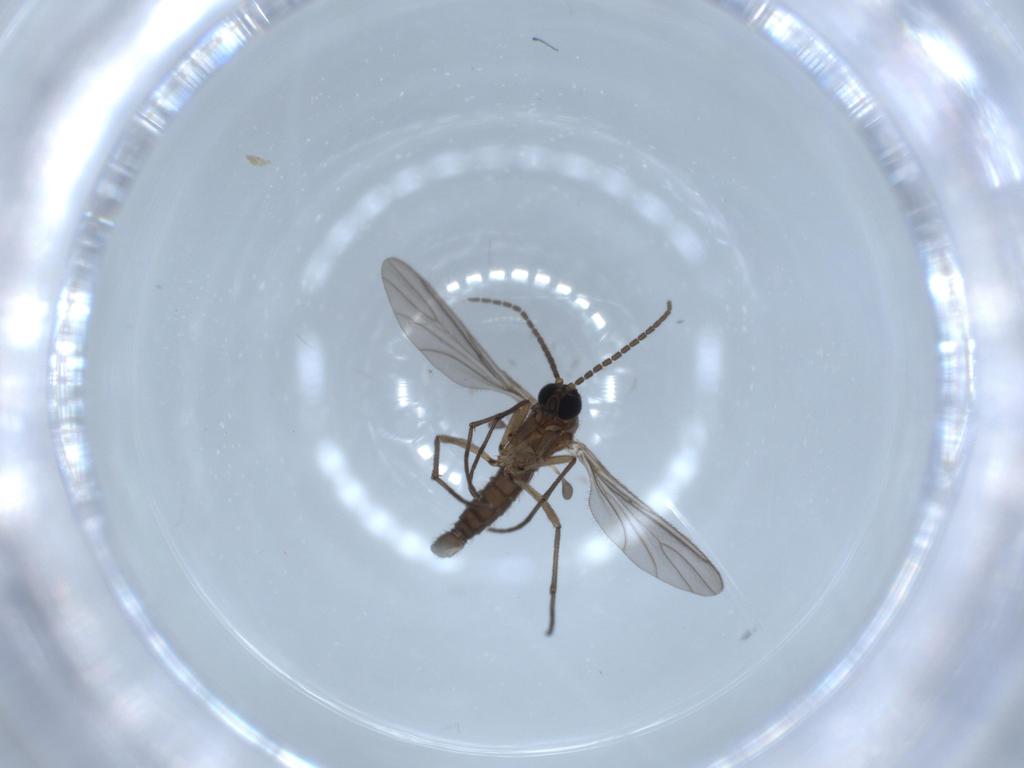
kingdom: Animalia
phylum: Arthropoda
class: Insecta
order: Diptera
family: Sciaridae
